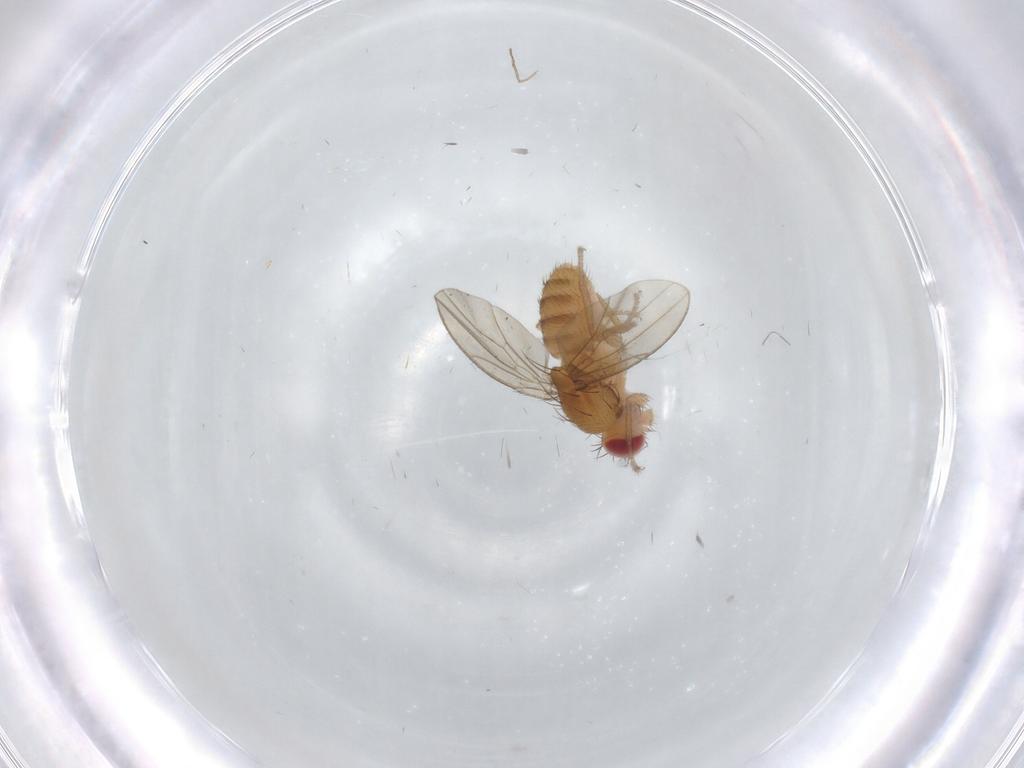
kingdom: Animalia
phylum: Arthropoda
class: Insecta
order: Diptera
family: Drosophilidae
